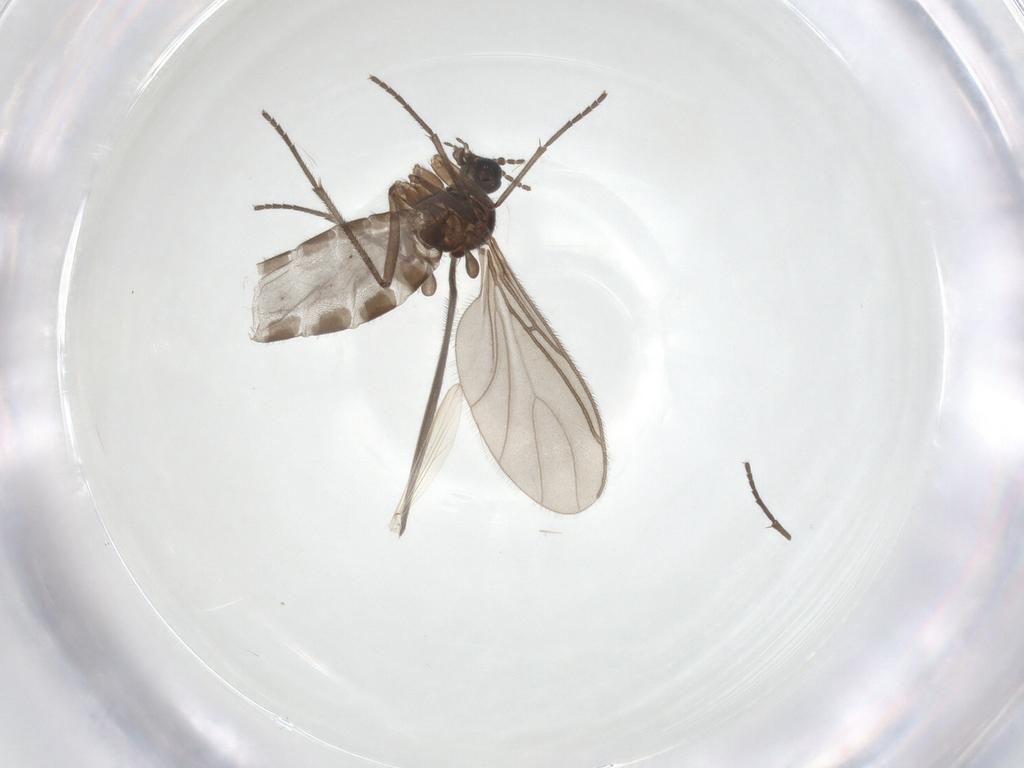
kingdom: Animalia
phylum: Arthropoda
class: Insecta
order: Diptera
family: Sciaridae
